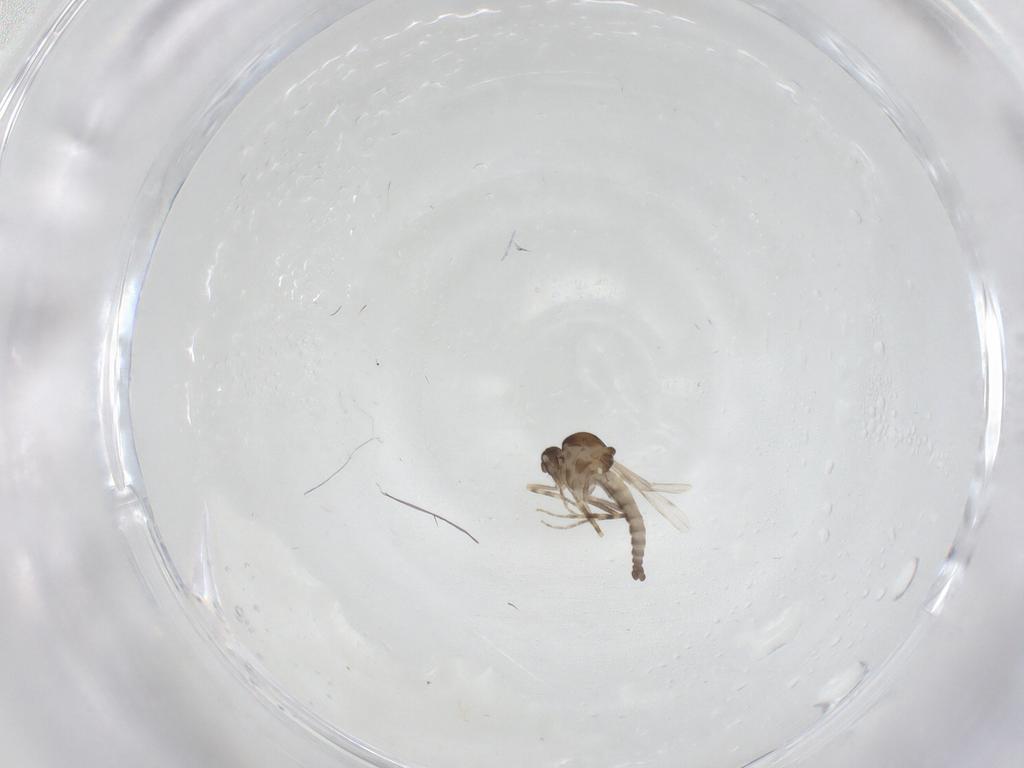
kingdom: Animalia
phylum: Arthropoda
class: Insecta
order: Diptera
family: Ceratopogonidae
